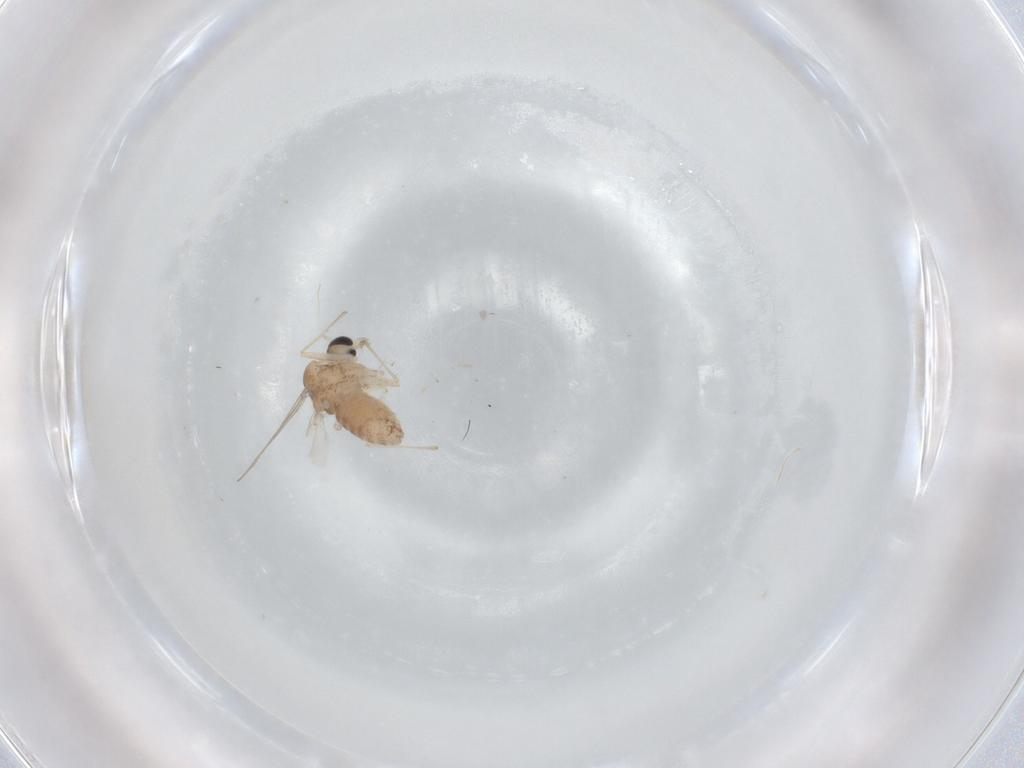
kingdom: Animalia
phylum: Arthropoda
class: Insecta
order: Diptera
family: Chironomidae
